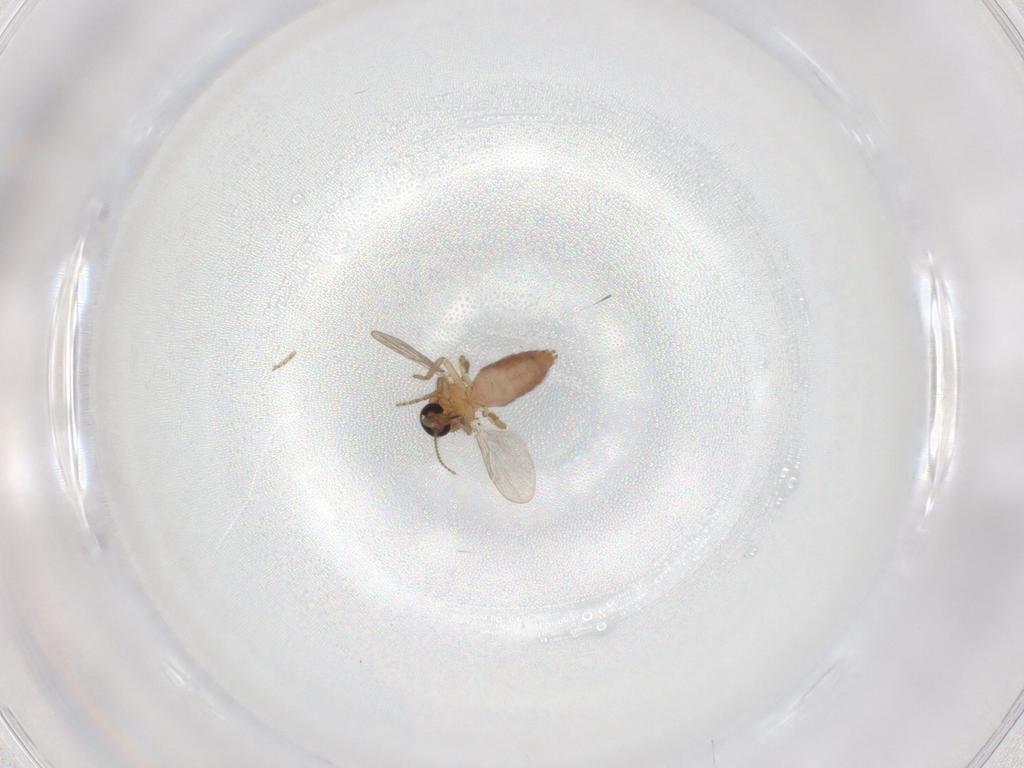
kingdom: Animalia
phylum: Arthropoda
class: Insecta
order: Diptera
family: Ceratopogonidae
